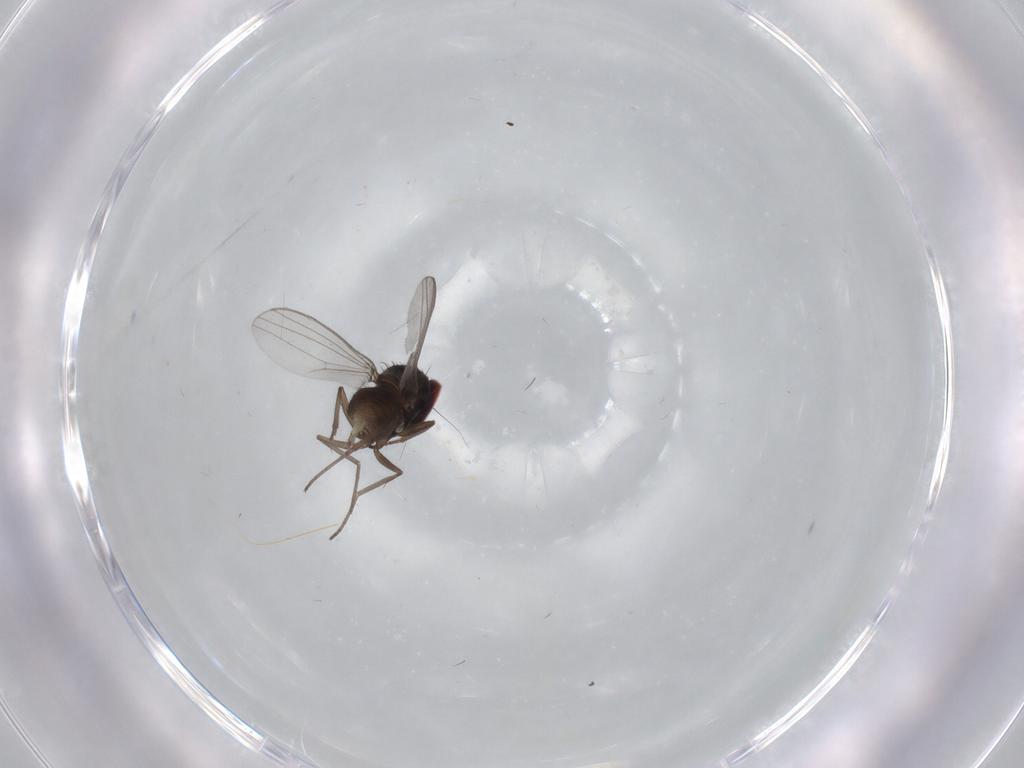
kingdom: Animalia
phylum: Arthropoda
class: Insecta
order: Diptera
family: Dolichopodidae
